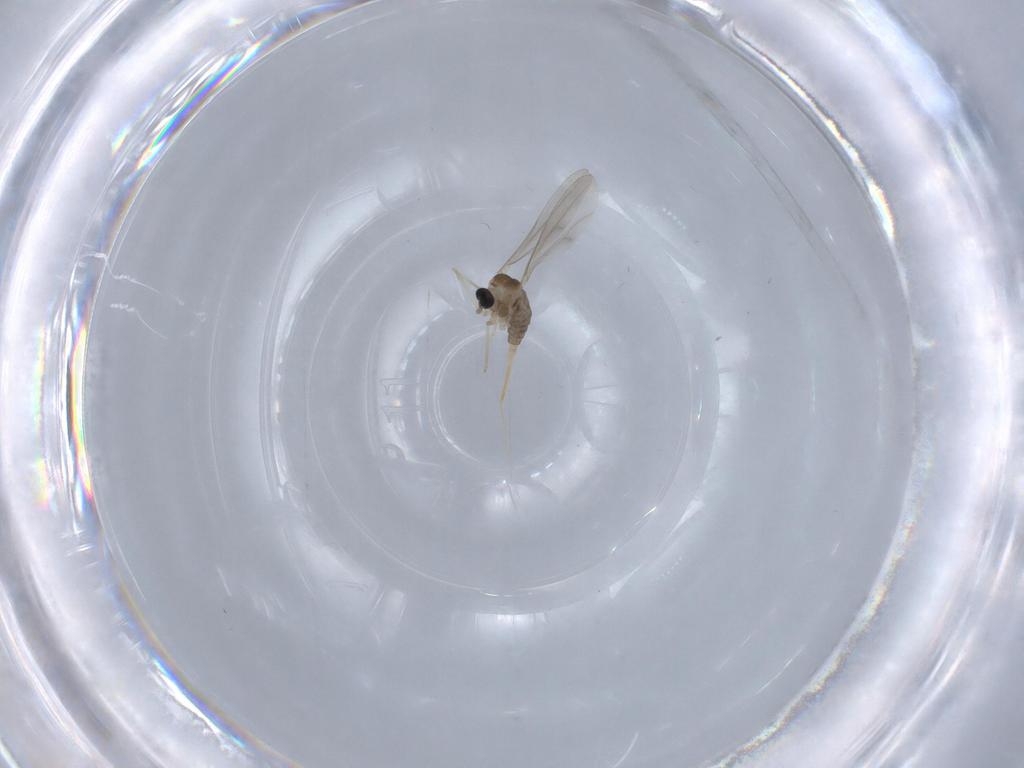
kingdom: Animalia
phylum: Arthropoda
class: Insecta
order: Diptera
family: Cecidomyiidae
